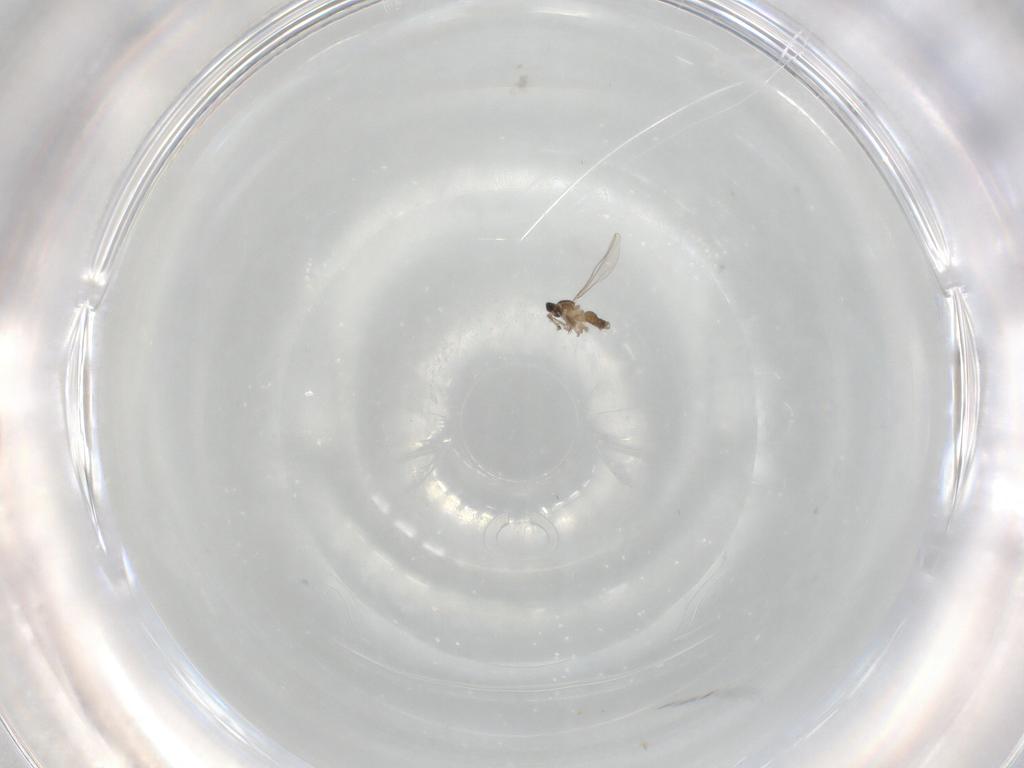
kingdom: Animalia
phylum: Arthropoda
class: Insecta
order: Diptera
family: Cecidomyiidae
